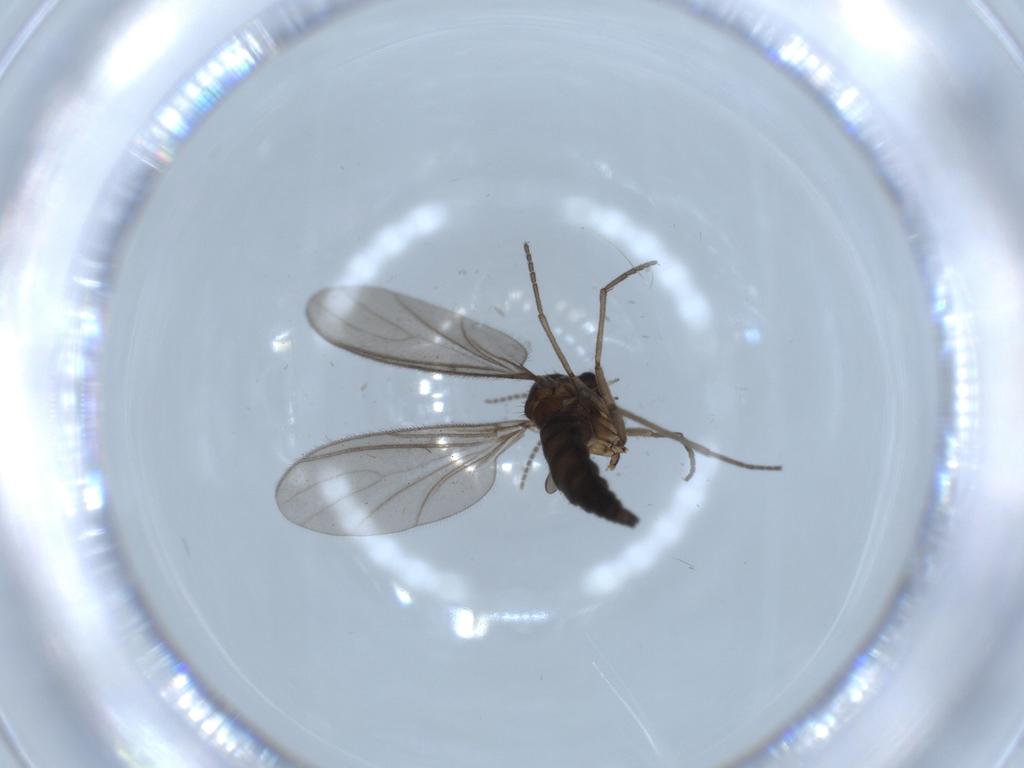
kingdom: Animalia
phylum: Arthropoda
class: Insecta
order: Diptera
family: Sciaridae
